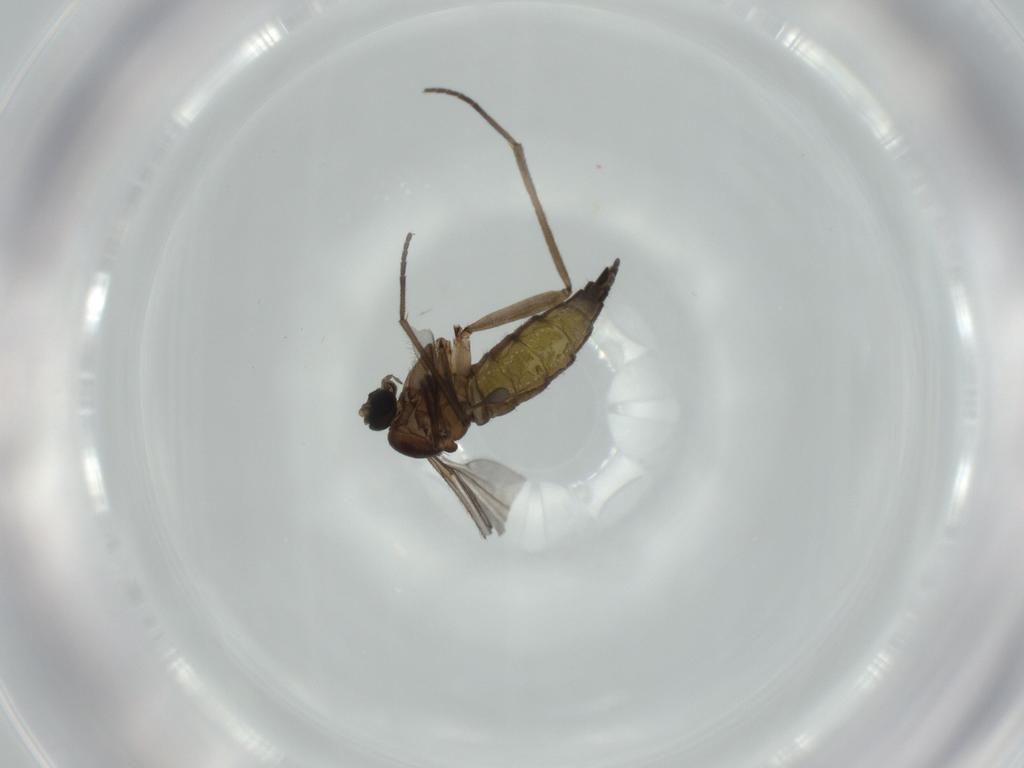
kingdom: Animalia
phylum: Arthropoda
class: Insecta
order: Diptera
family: Sciaridae
